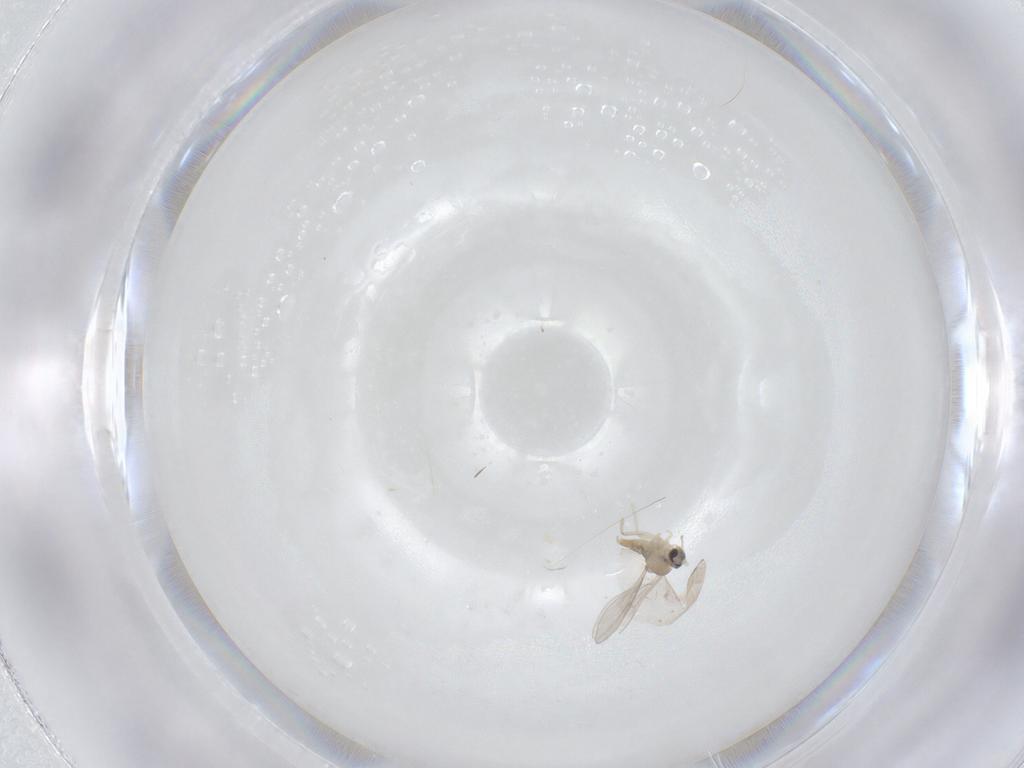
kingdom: Animalia
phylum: Arthropoda
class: Insecta
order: Diptera
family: Cecidomyiidae
